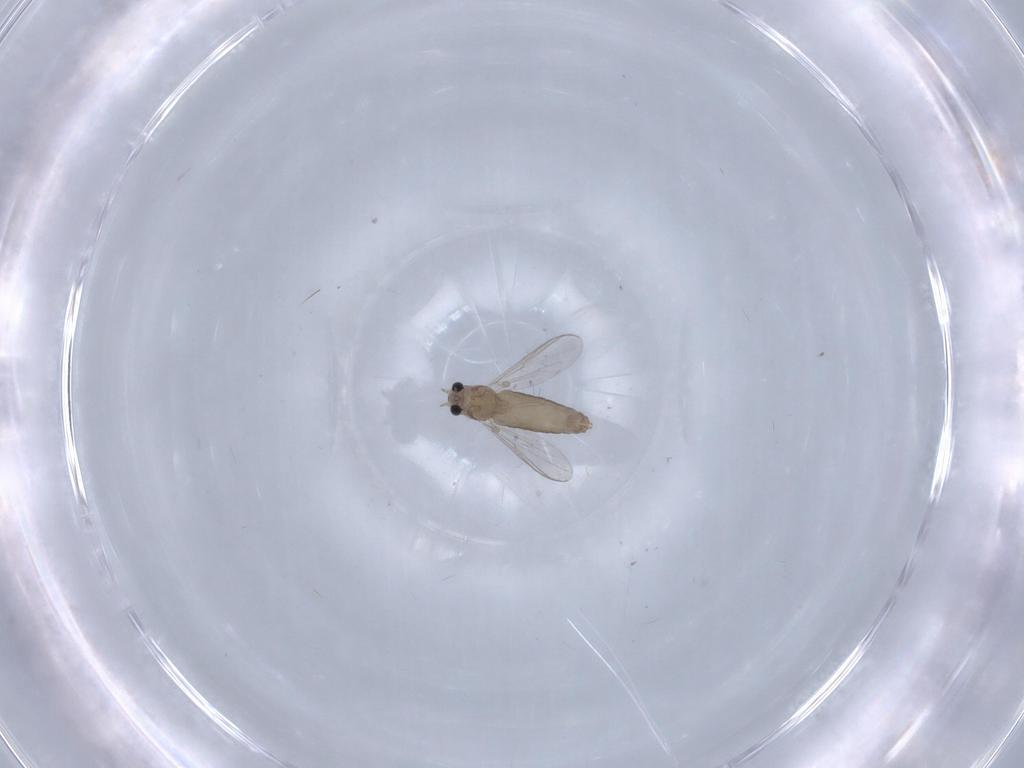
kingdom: Animalia
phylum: Arthropoda
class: Insecta
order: Diptera
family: Chironomidae
